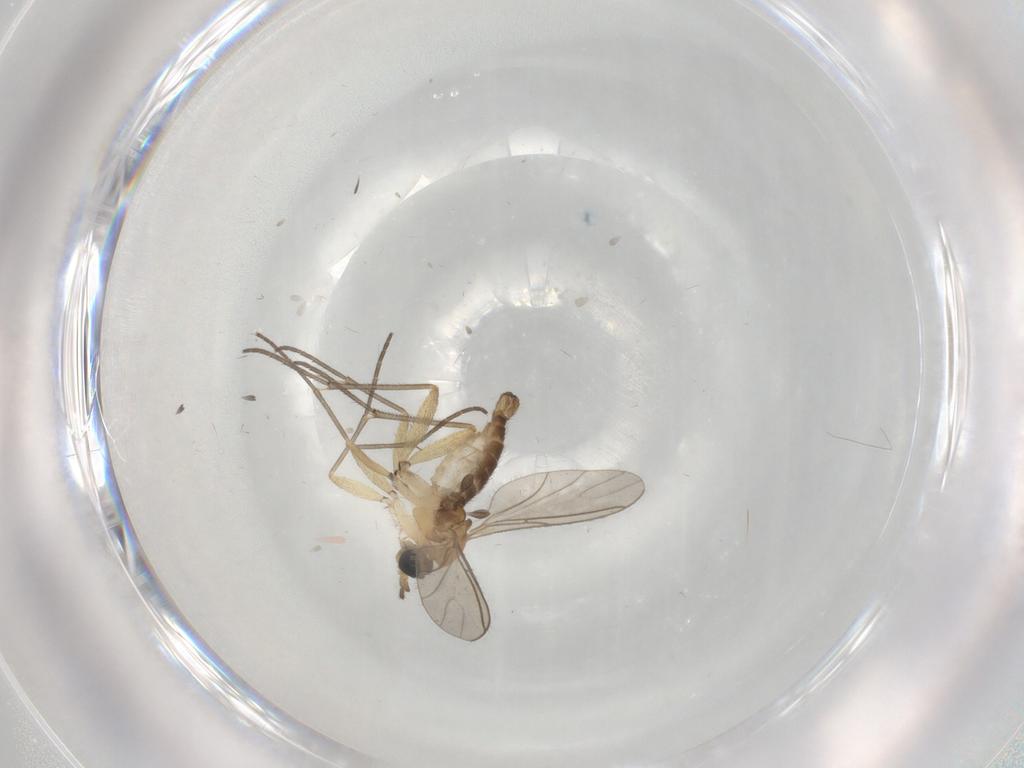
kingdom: Animalia
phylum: Arthropoda
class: Insecta
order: Diptera
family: Sciaridae
